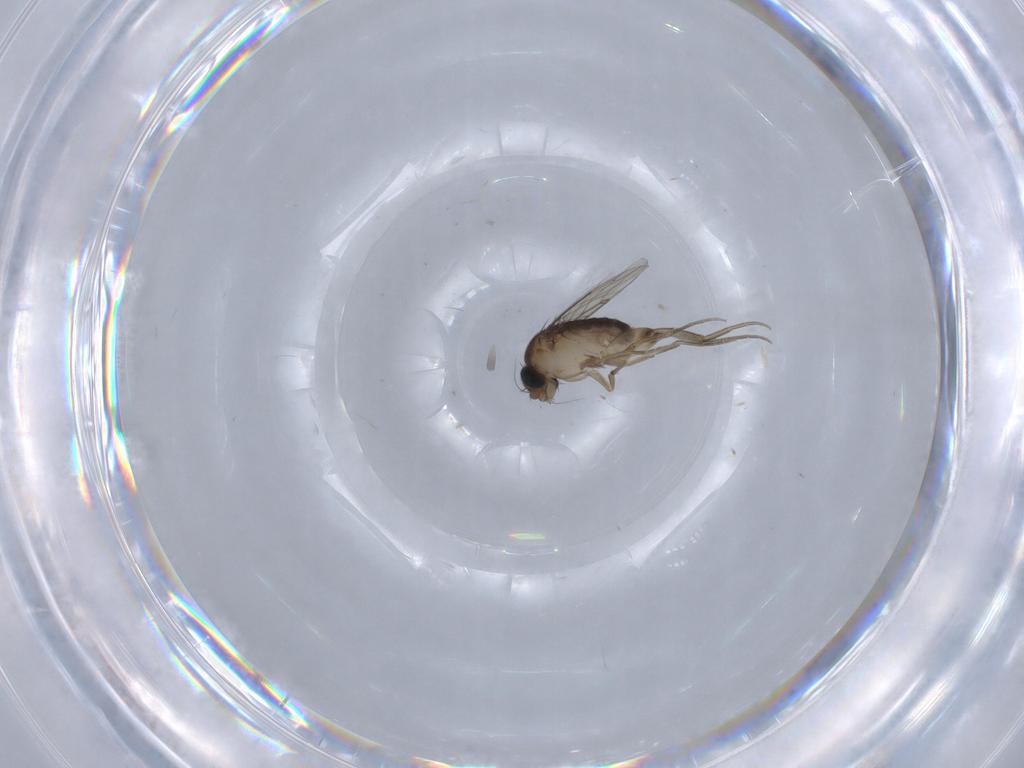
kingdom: Animalia
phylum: Arthropoda
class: Insecta
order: Diptera
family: Phoridae
